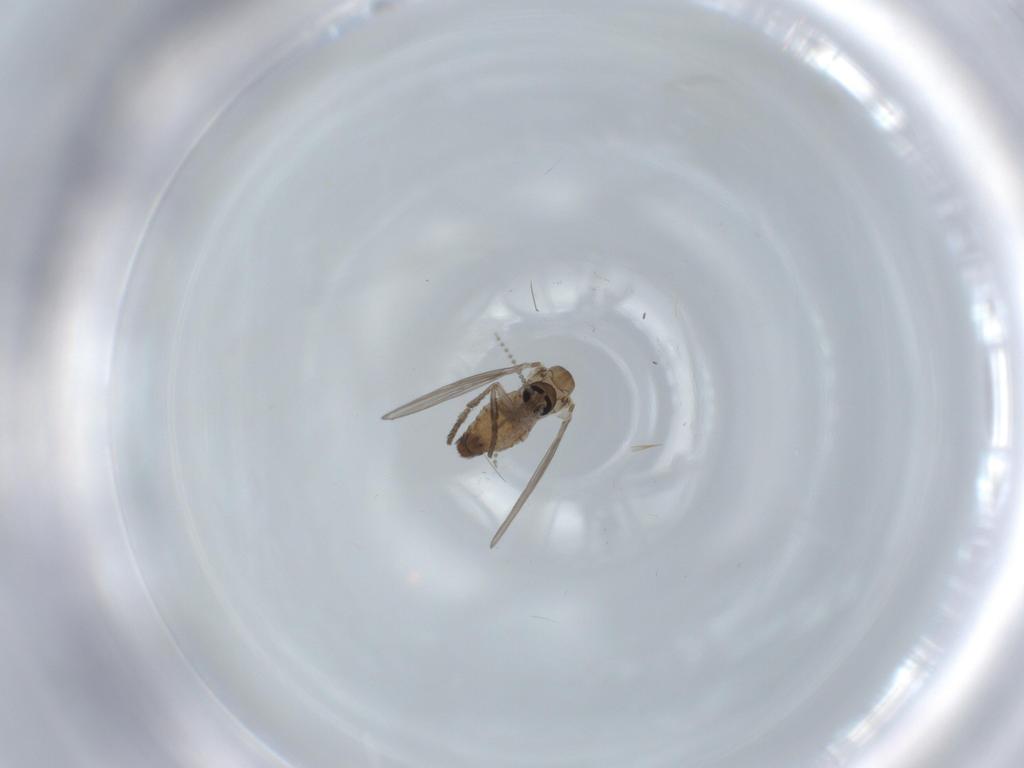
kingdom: Animalia
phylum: Arthropoda
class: Insecta
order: Diptera
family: Psychodidae
